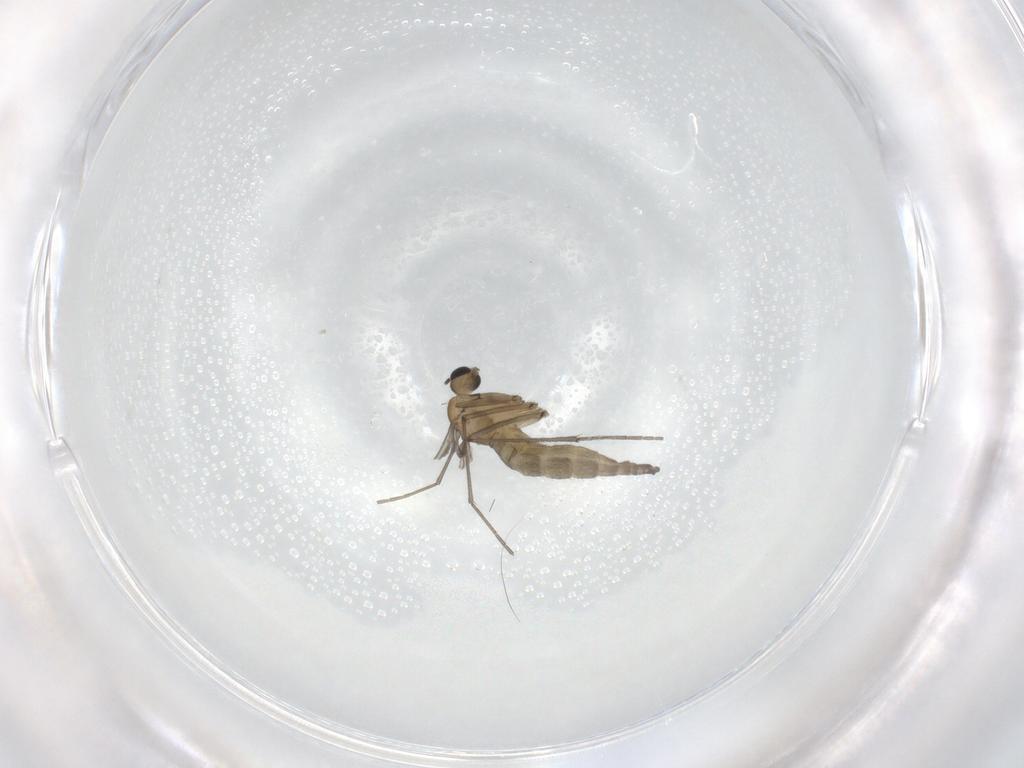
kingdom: Animalia
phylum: Arthropoda
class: Insecta
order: Diptera
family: Sciaridae
